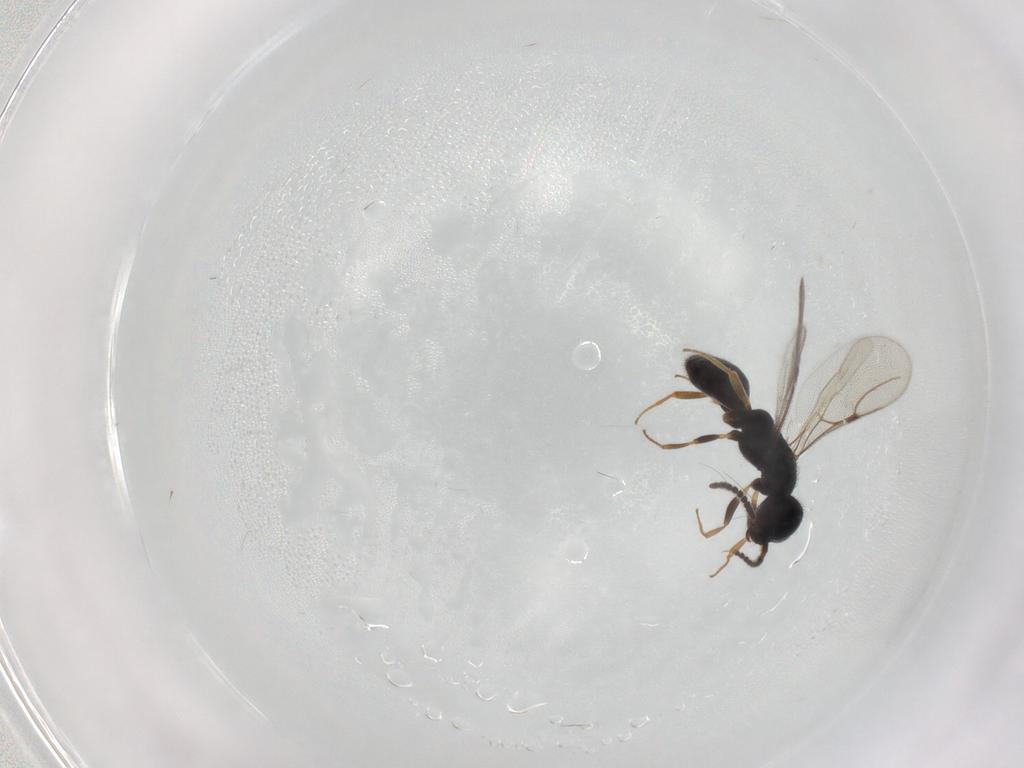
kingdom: Animalia
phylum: Arthropoda
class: Insecta
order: Hymenoptera
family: Bethylidae
